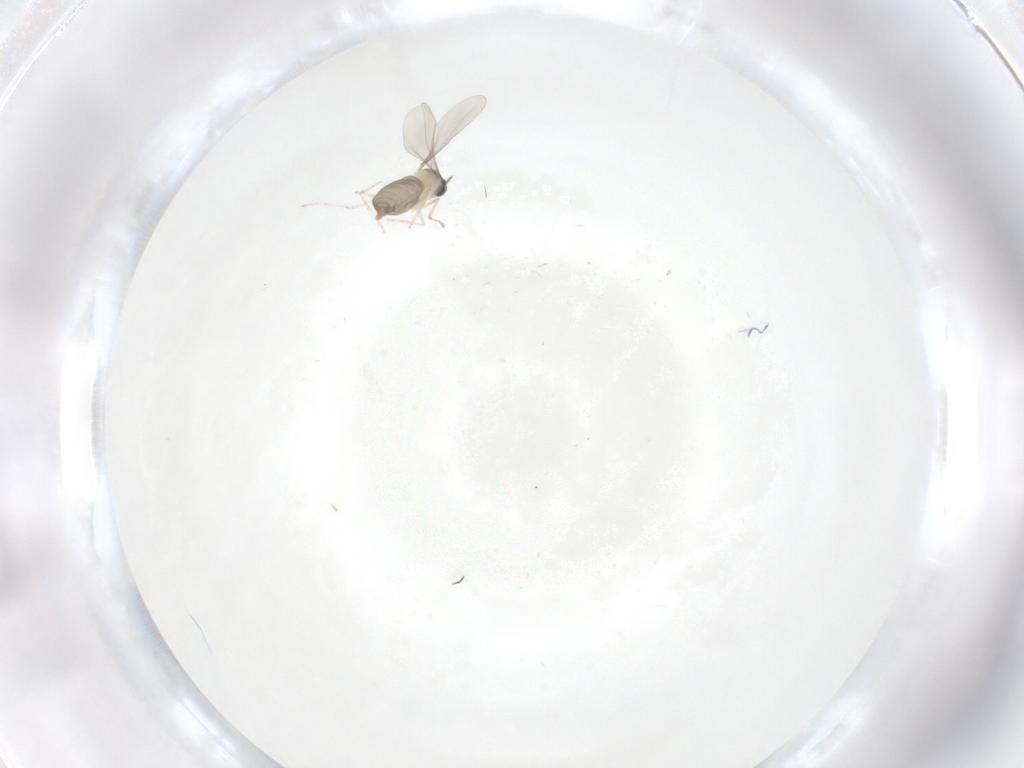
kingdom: Animalia
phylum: Arthropoda
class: Insecta
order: Diptera
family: Cecidomyiidae
